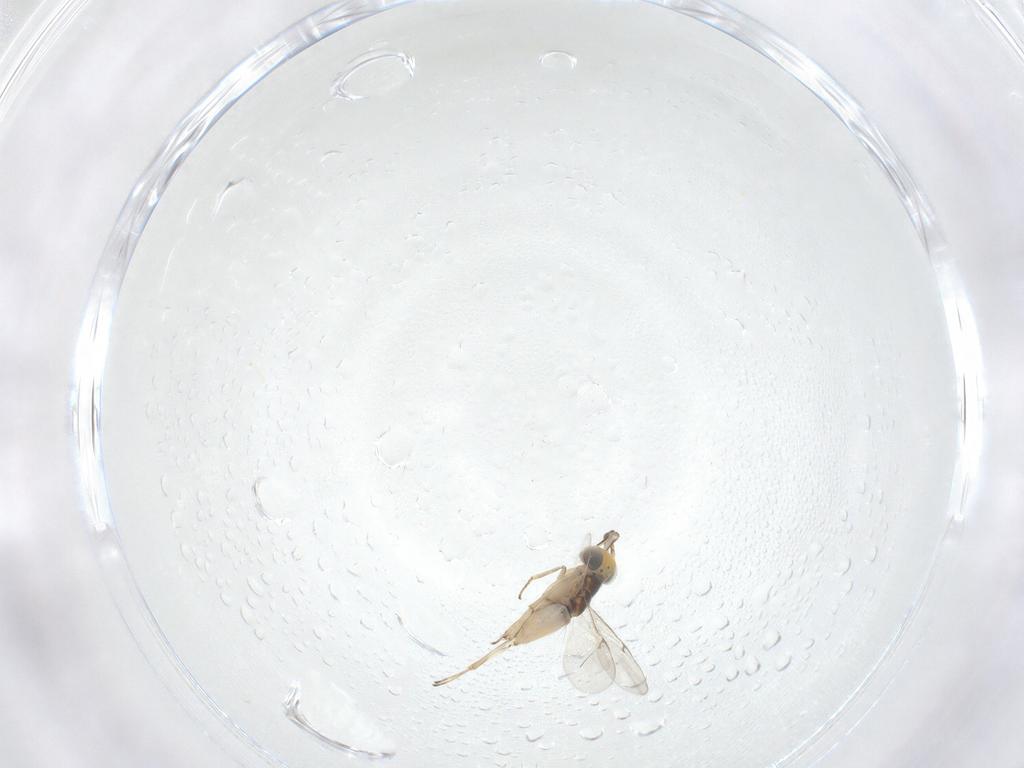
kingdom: Animalia
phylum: Arthropoda
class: Insecta
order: Hymenoptera
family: Encyrtidae
